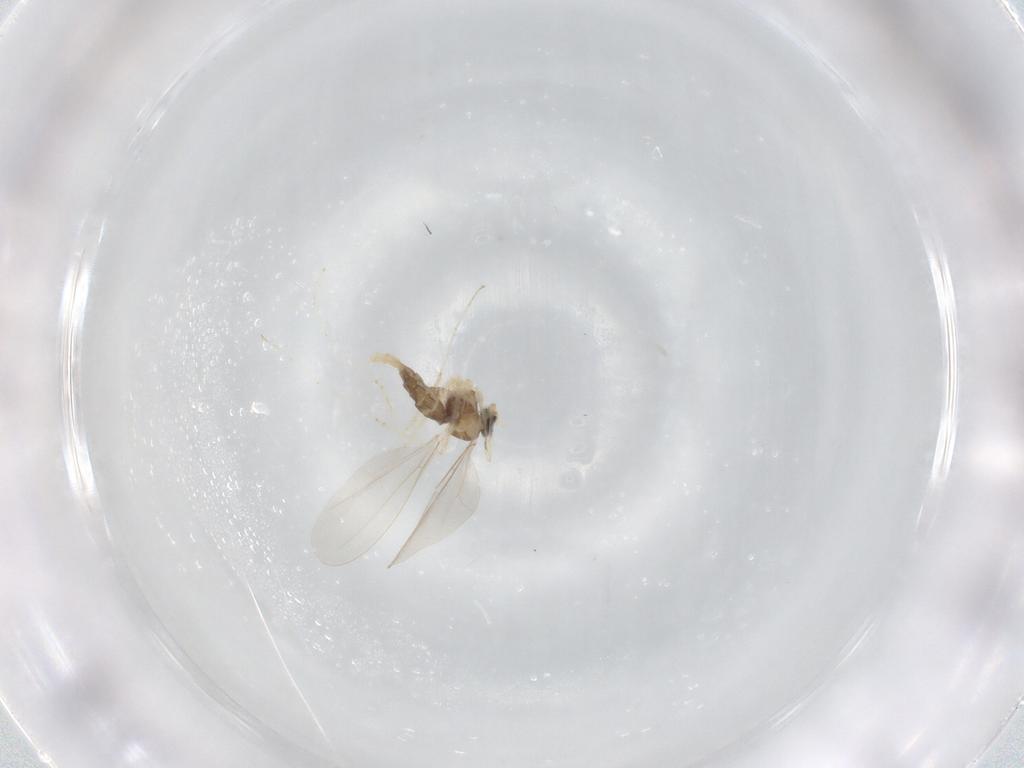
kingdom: Animalia
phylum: Arthropoda
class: Insecta
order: Diptera
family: Cecidomyiidae
